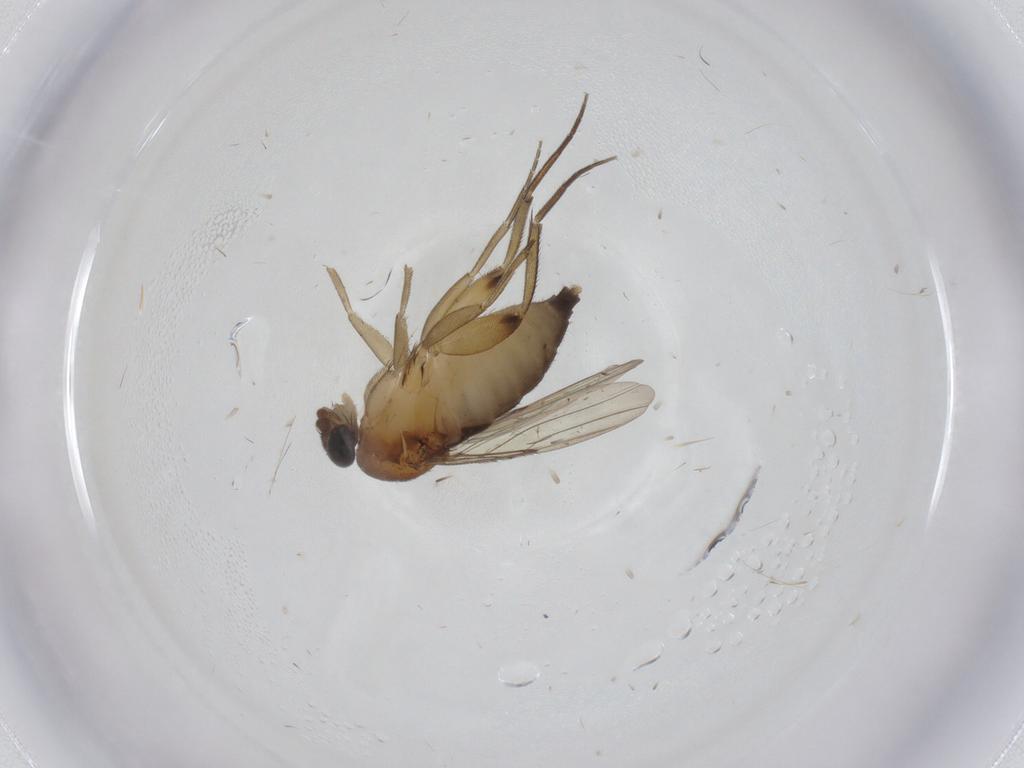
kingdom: Animalia
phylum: Arthropoda
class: Insecta
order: Diptera
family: Phoridae
